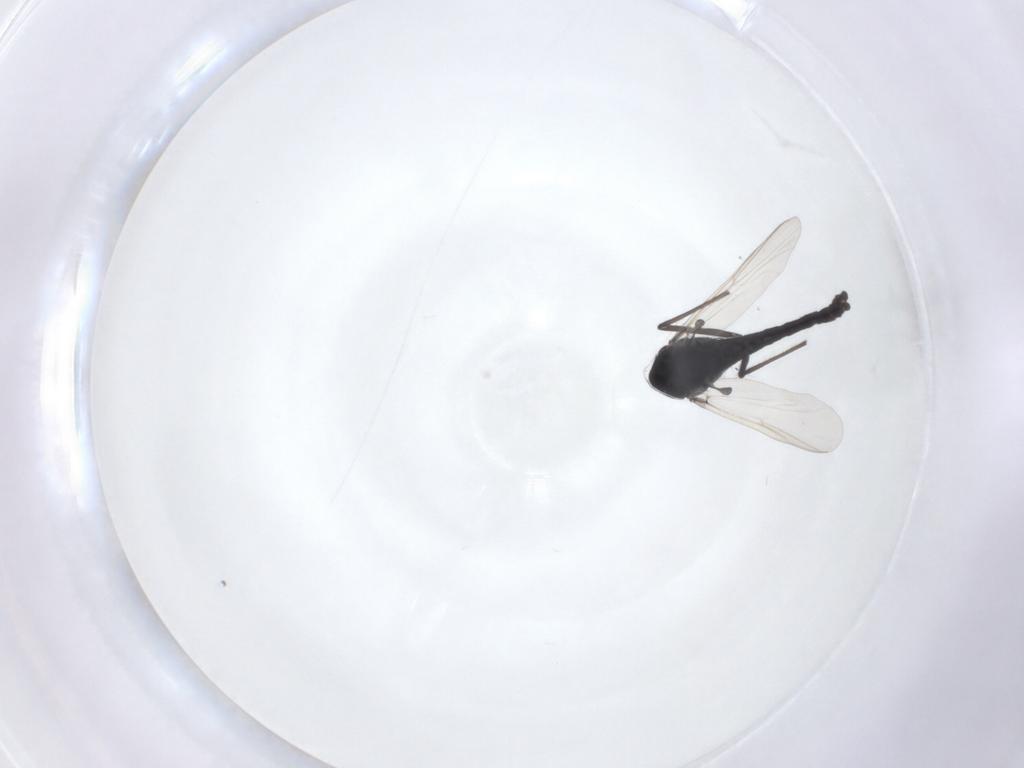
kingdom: Animalia
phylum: Arthropoda
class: Insecta
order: Diptera
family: Chironomidae
